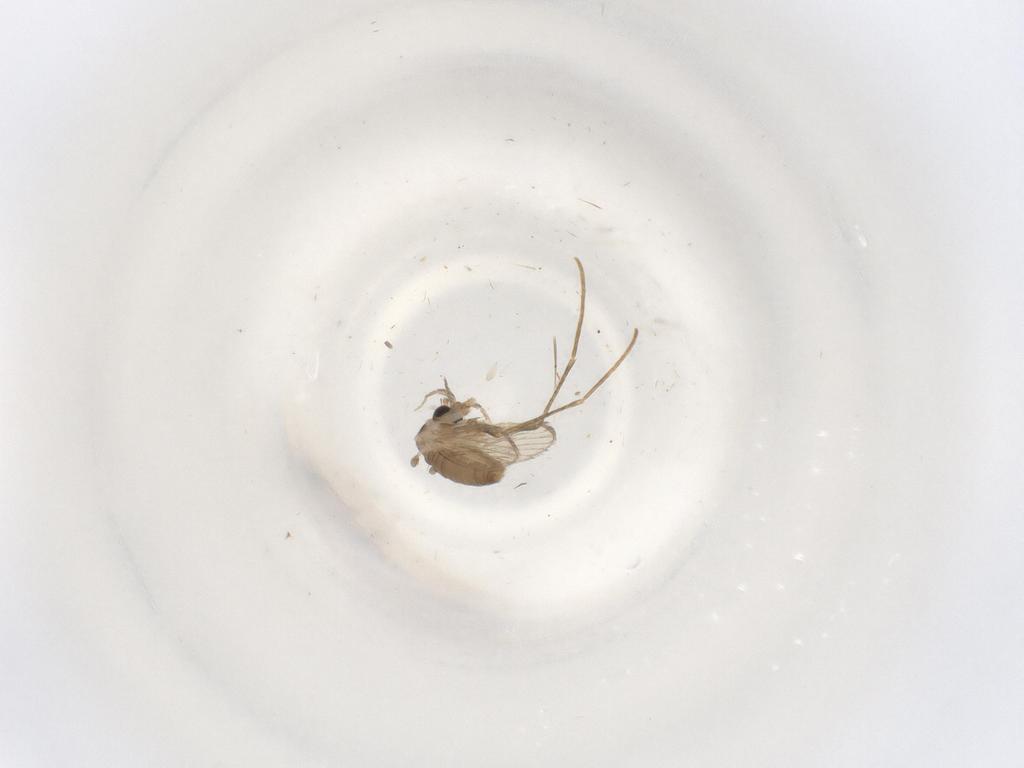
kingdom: Animalia
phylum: Arthropoda
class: Insecta
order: Diptera
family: Psychodidae
